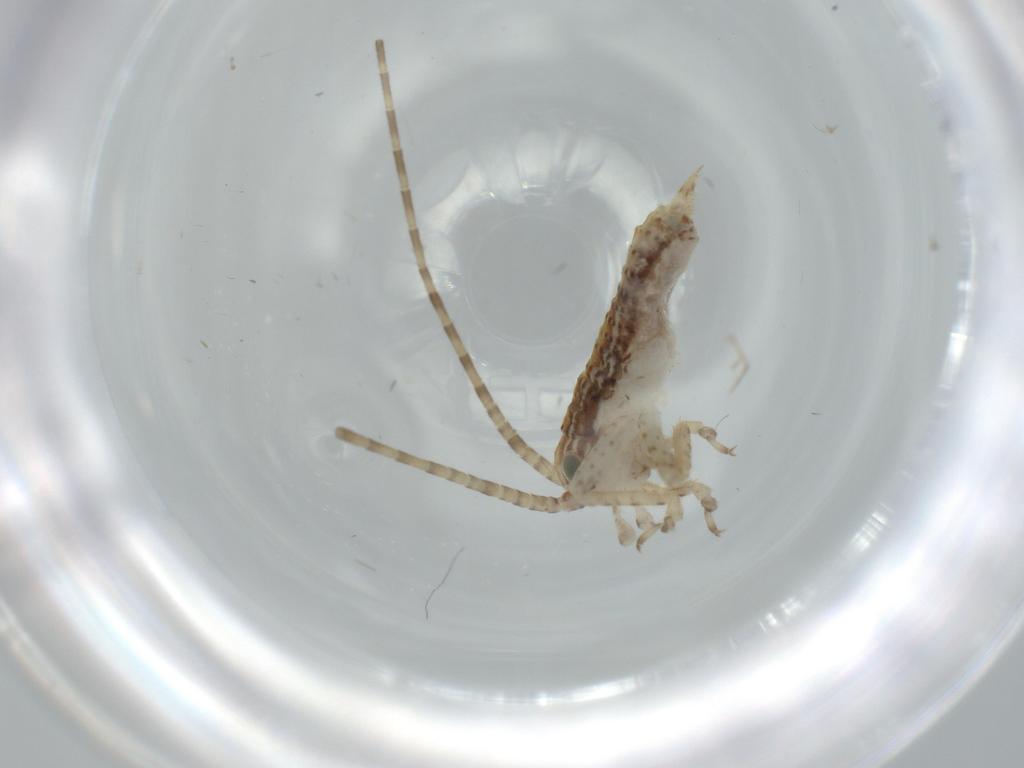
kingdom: Animalia
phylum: Arthropoda
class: Insecta
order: Orthoptera
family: Gryllidae
